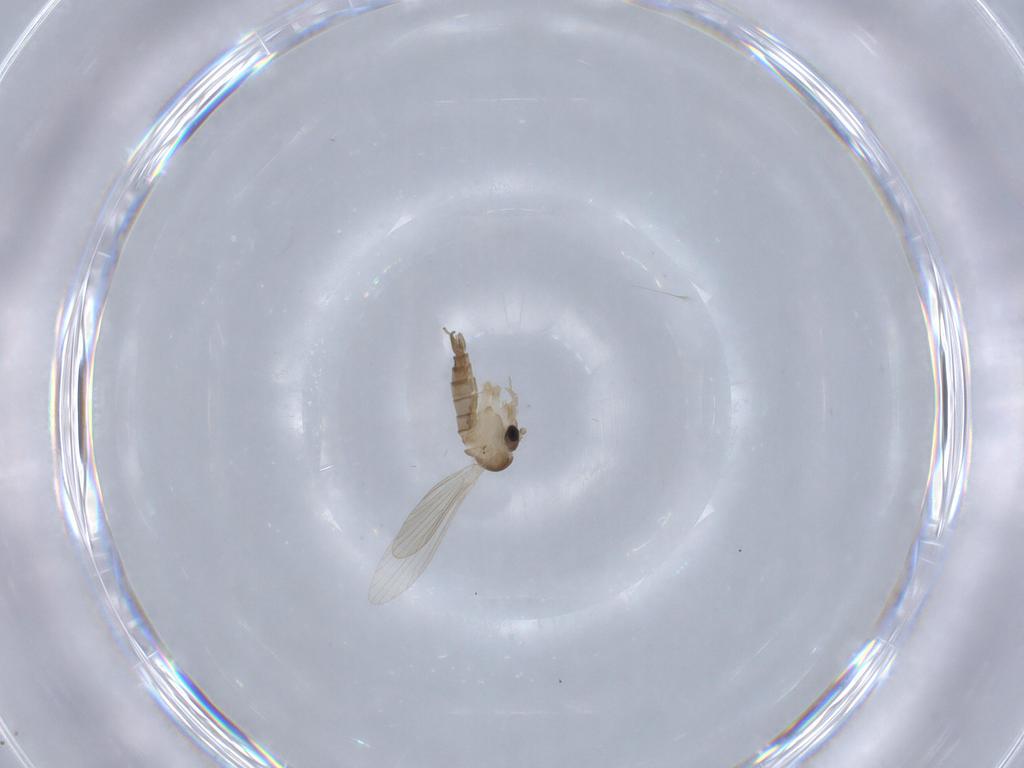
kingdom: Animalia
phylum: Arthropoda
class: Insecta
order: Diptera
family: Psychodidae
